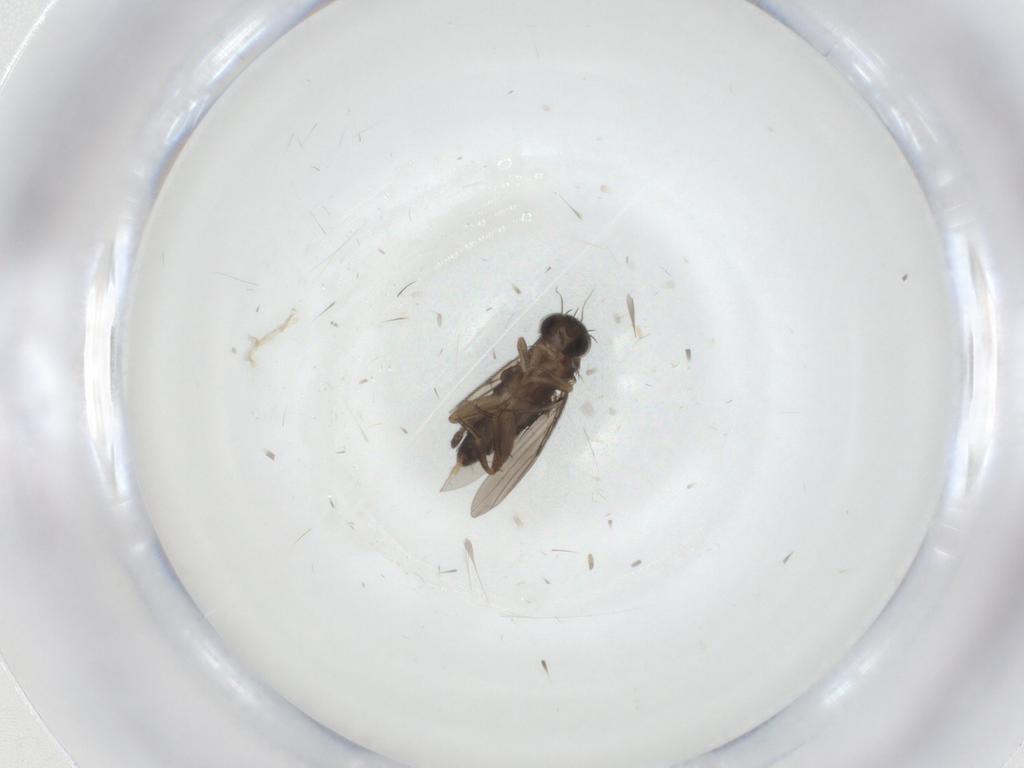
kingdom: Animalia
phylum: Arthropoda
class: Insecta
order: Diptera
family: Phoridae
